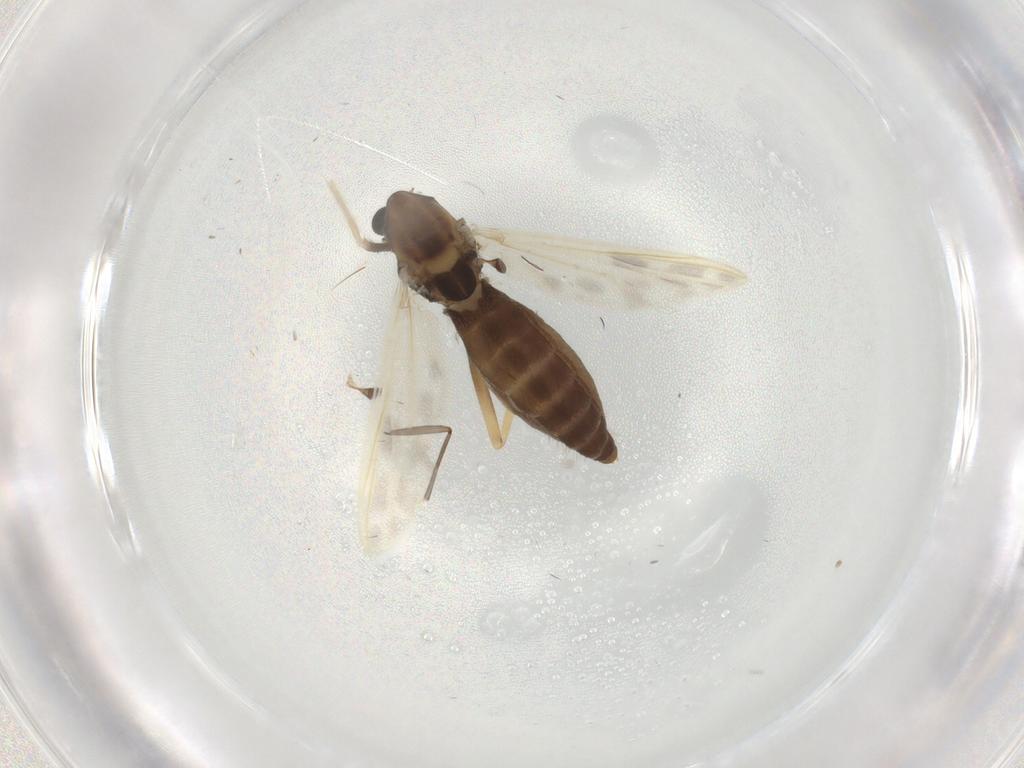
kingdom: Animalia
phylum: Arthropoda
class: Insecta
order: Diptera
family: Chironomidae
